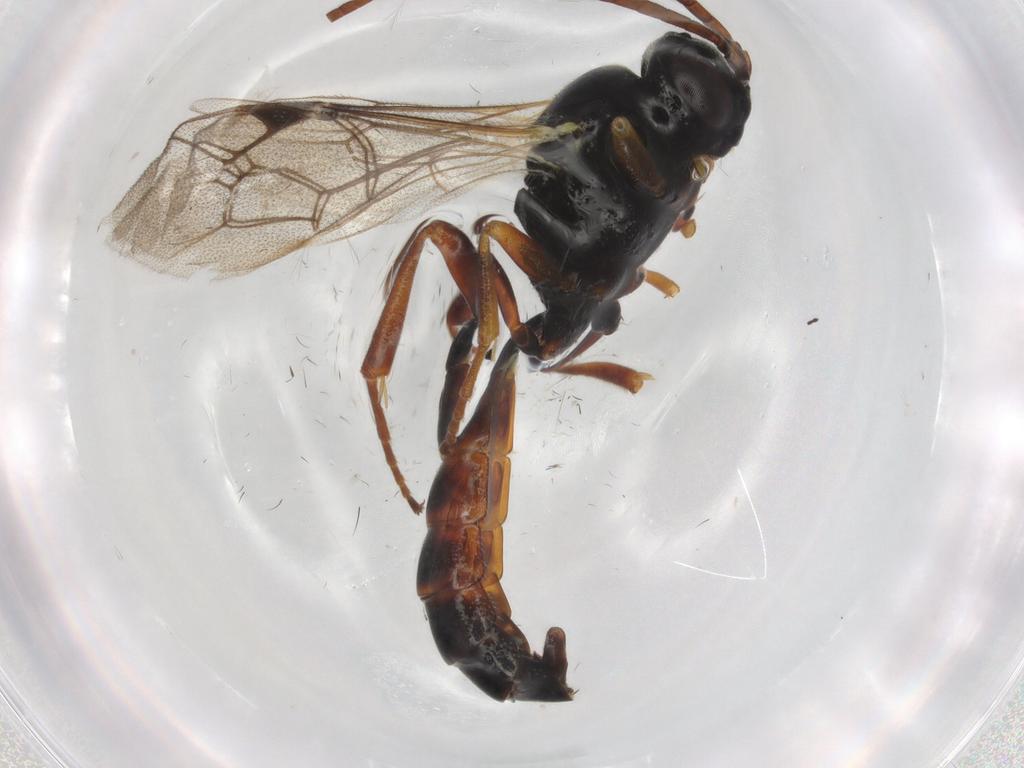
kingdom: Animalia
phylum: Arthropoda
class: Insecta
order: Hymenoptera
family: Ichneumonidae
